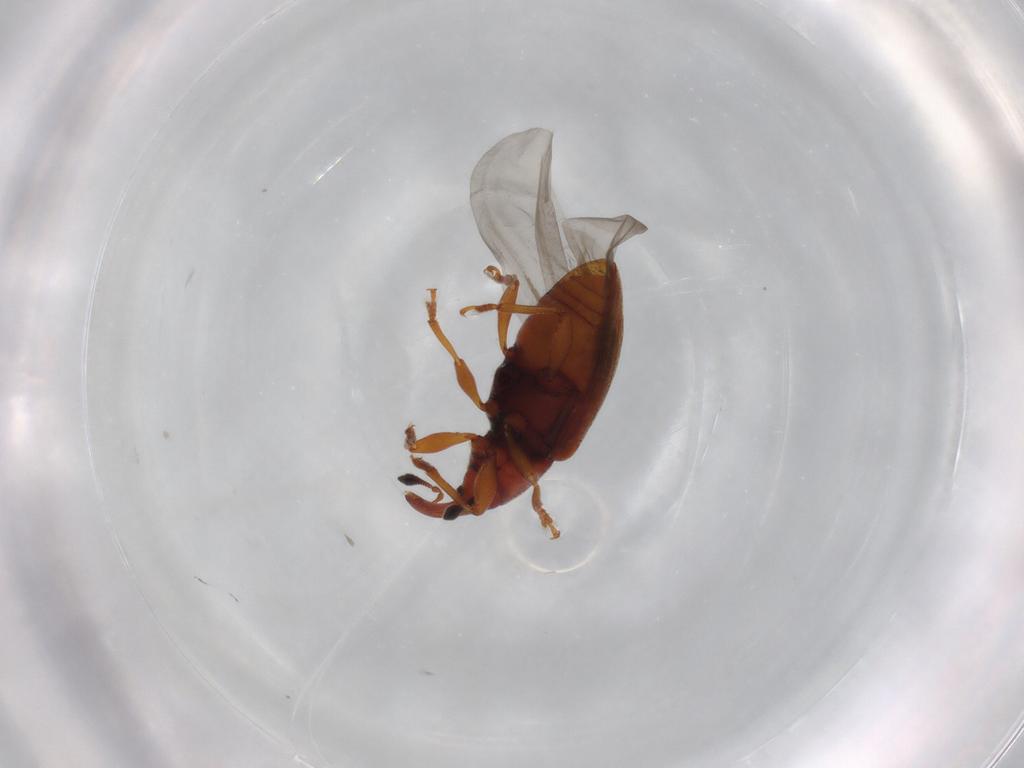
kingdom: Animalia
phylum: Arthropoda
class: Insecta
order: Coleoptera
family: Curculionidae
